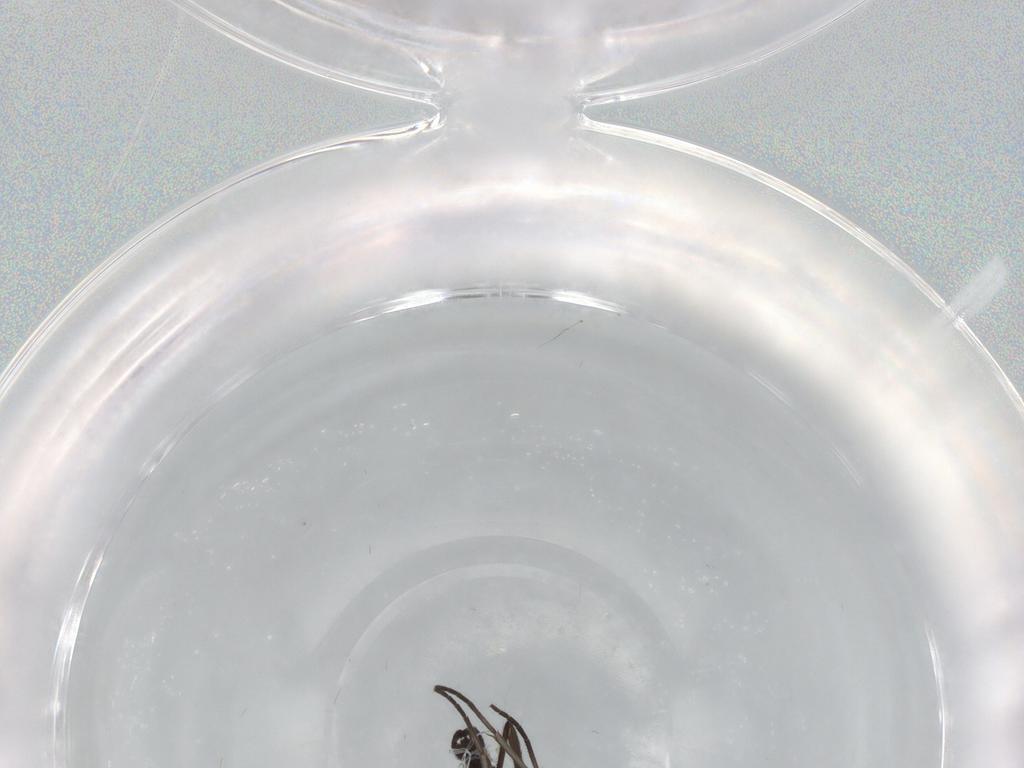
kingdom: Animalia
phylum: Arthropoda
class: Insecta
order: Diptera
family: Sciaridae
